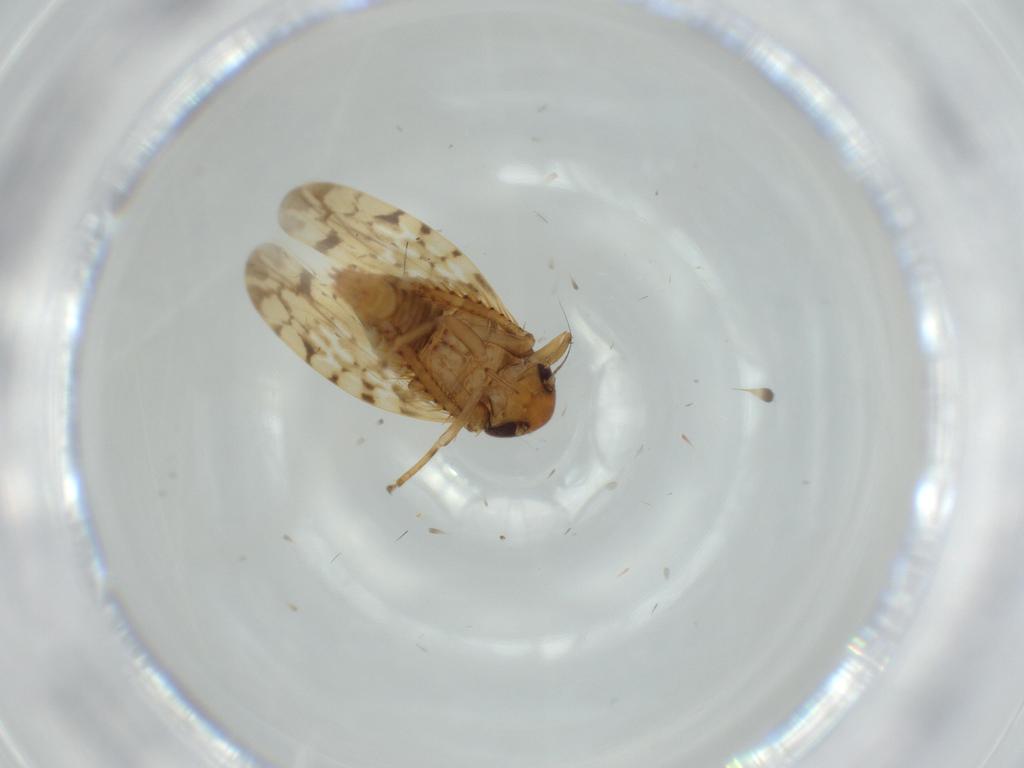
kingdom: Animalia
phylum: Arthropoda
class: Insecta
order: Hemiptera
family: Cicadellidae
